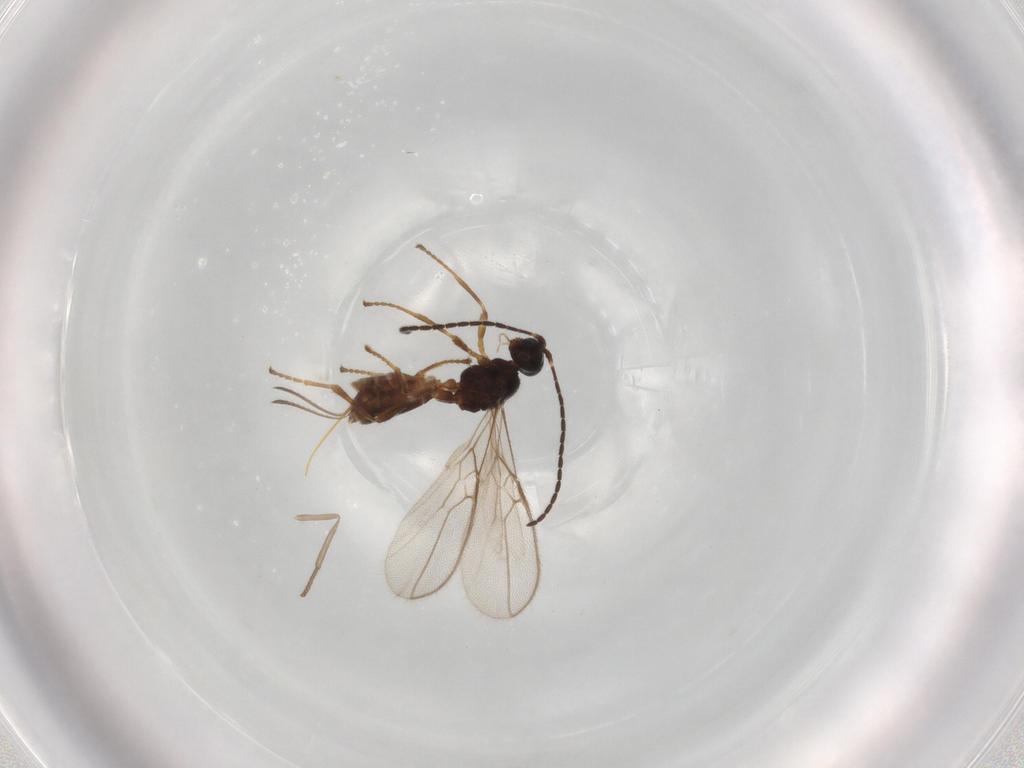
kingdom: Animalia
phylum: Arthropoda
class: Insecta
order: Hymenoptera
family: Braconidae
